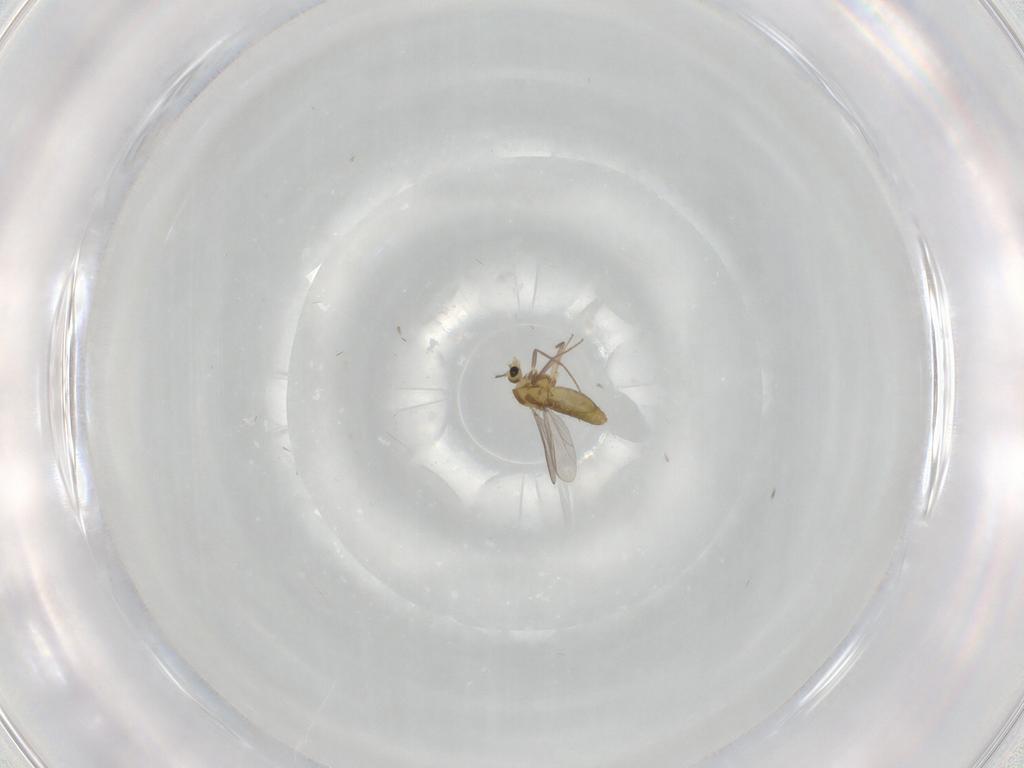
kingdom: Animalia
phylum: Arthropoda
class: Insecta
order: Diptera
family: Chironomidae
